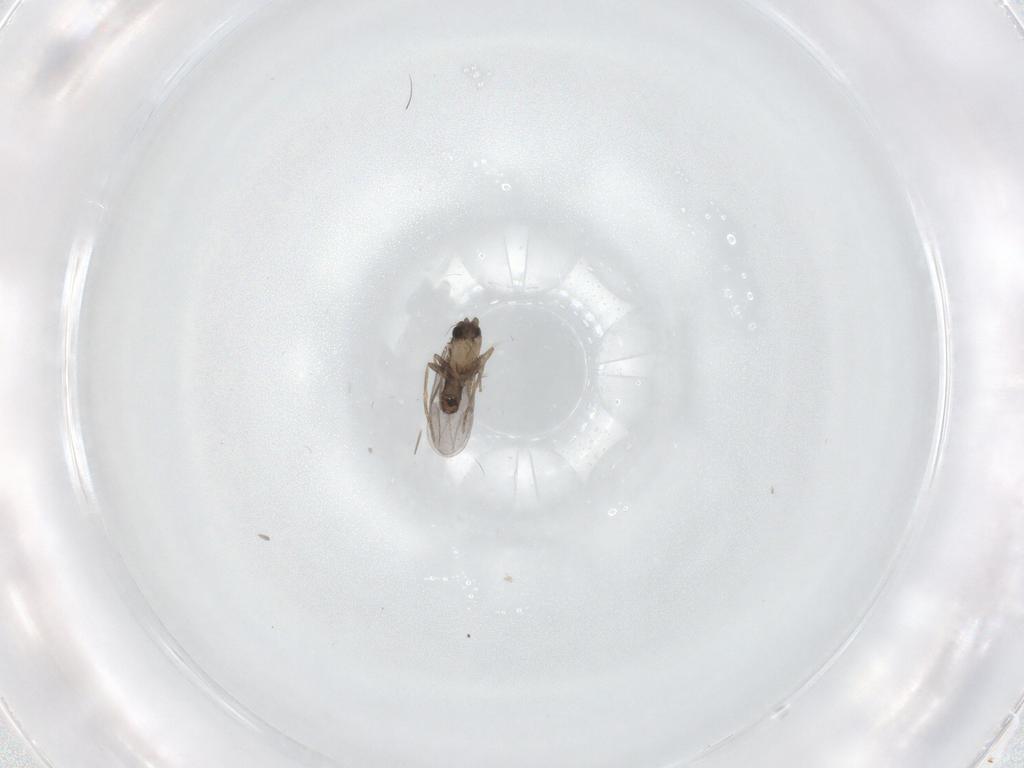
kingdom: Animalia
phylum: Arthropoda
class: Insecta
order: Diptera
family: Cecidomyiidae
